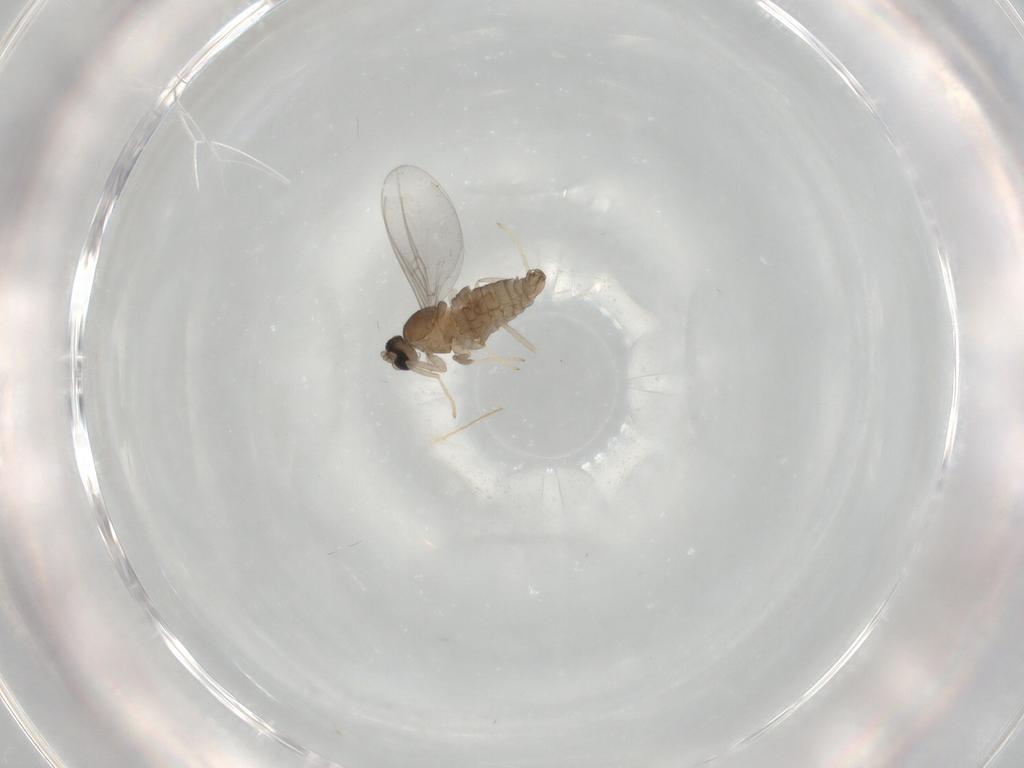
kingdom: Animalia
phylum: Arthropoda
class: Insecta
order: Diptera
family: Cecidomyiidae
